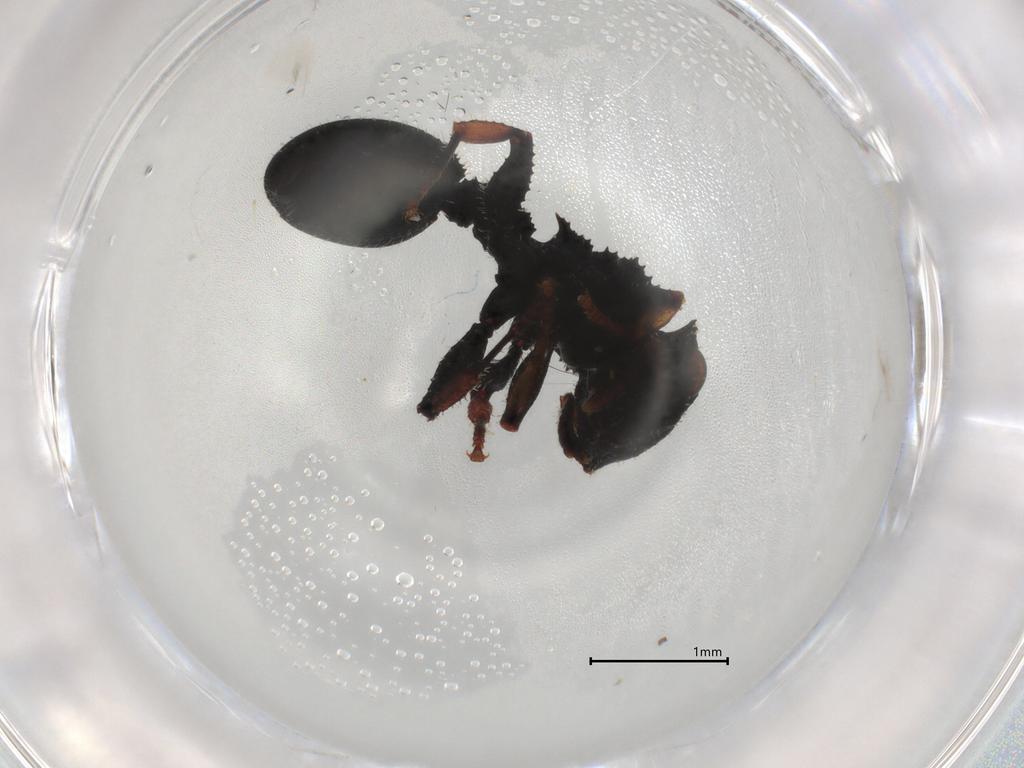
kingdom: Animalia
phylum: Arthropoda
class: Insecta
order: Hymenoptera
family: Formicidae
